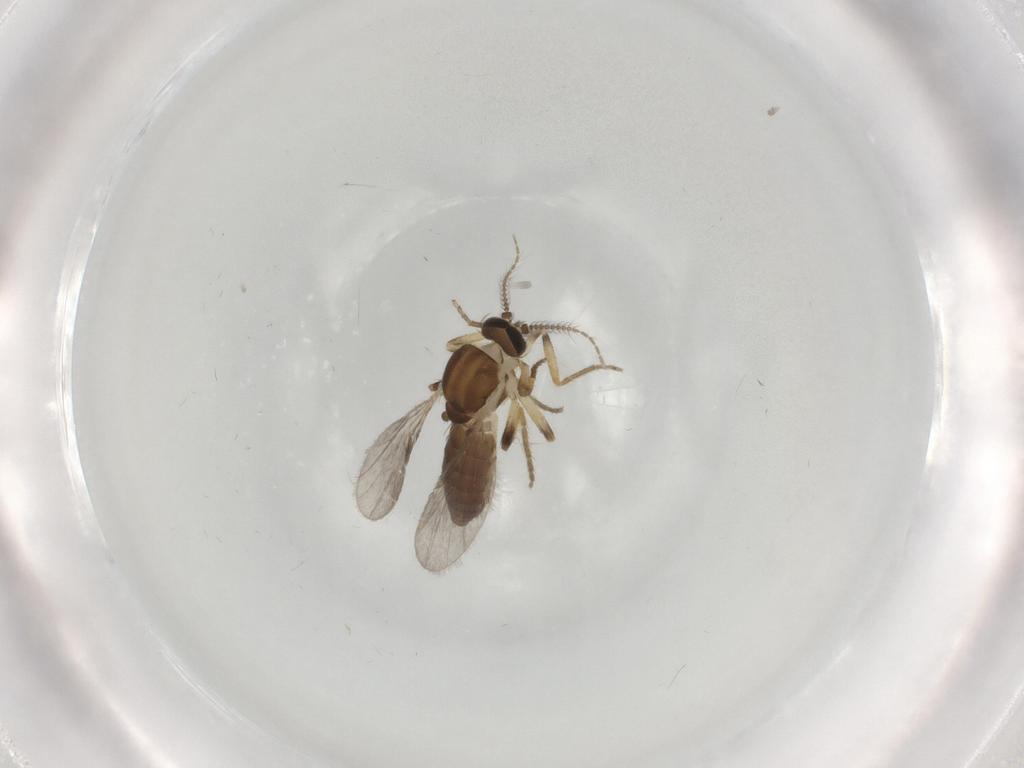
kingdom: Animalia
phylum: Arthropoda
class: Insecta
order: Diptera
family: Ceratopogonidae
